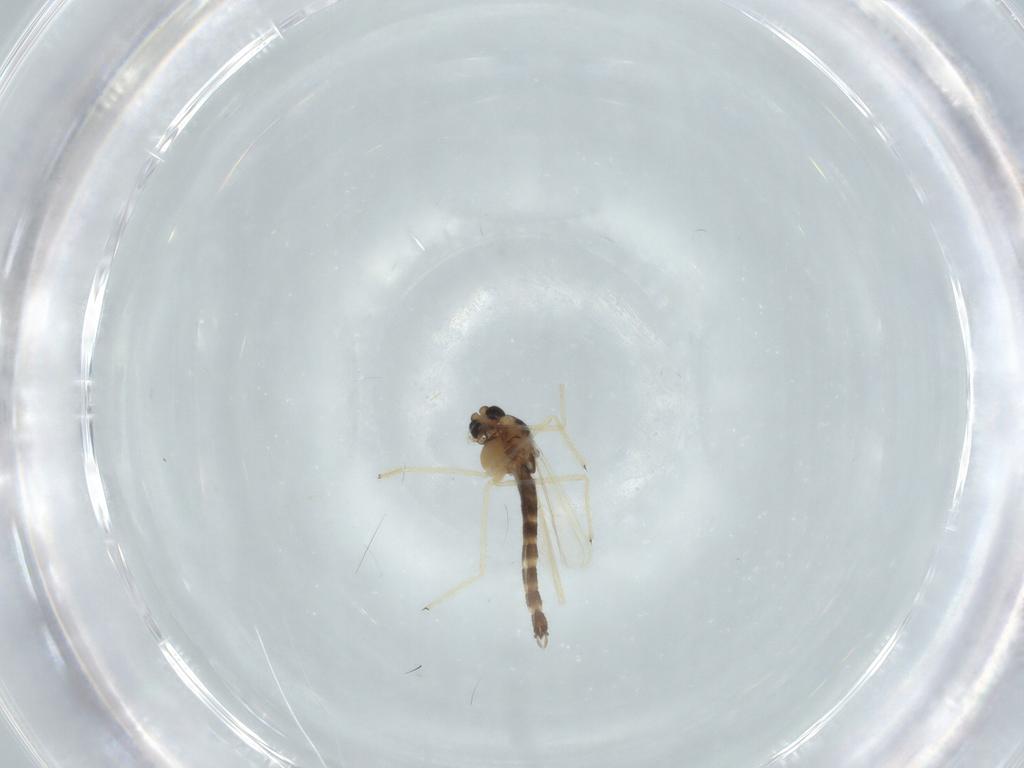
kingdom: Animalia
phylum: Arthropoda
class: Insecta
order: Diptera
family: Chironomidae
